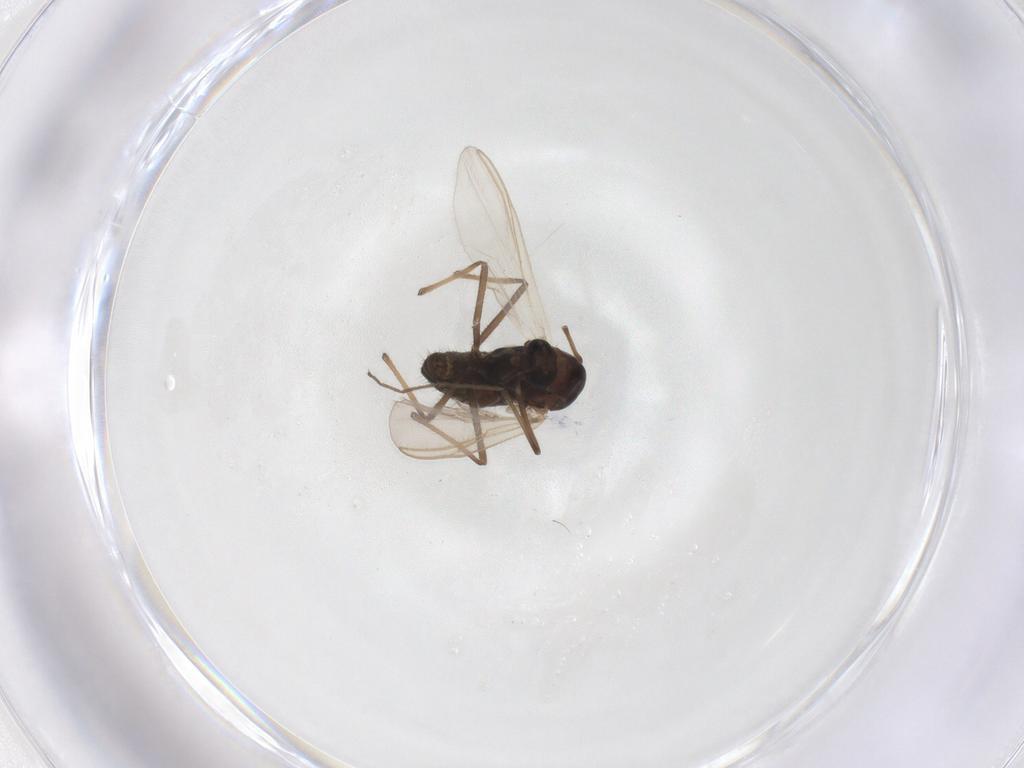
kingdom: Animalia
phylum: Arthropoda
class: Insecta
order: Diptera
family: Chironomidae
